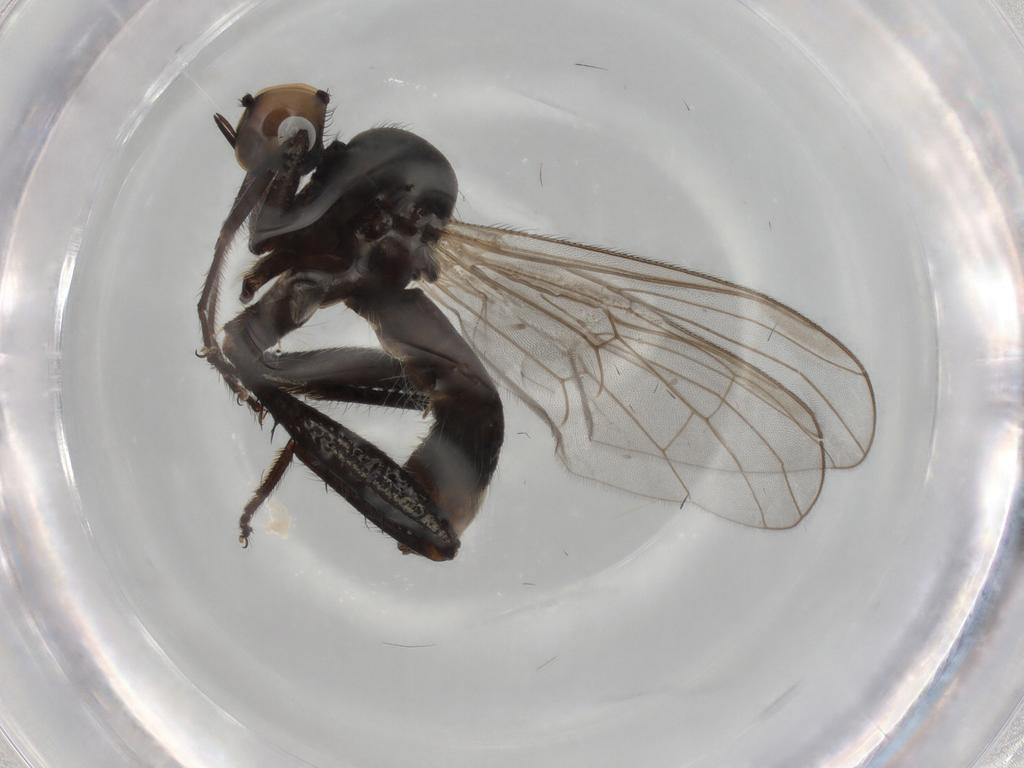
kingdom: Animalia
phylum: Arthropoda
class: Insecta
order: Diptera
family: Hybotidae
